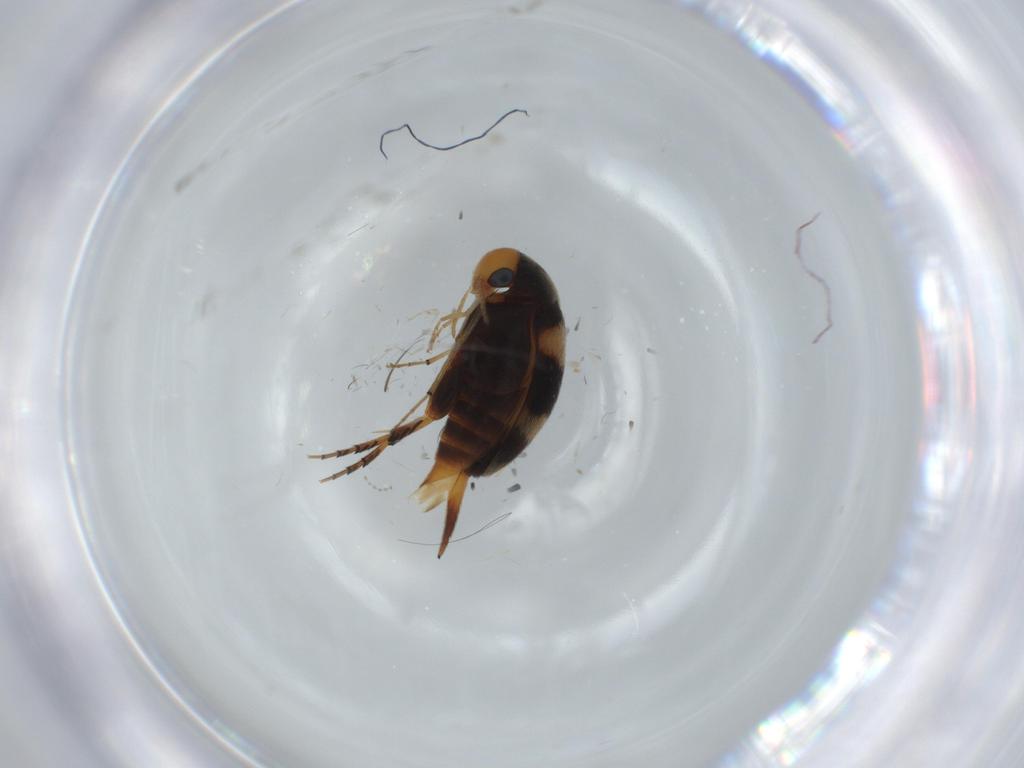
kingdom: Animalia
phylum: Arthropoda
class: Insecta
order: Coleoptera
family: Mordellidae
